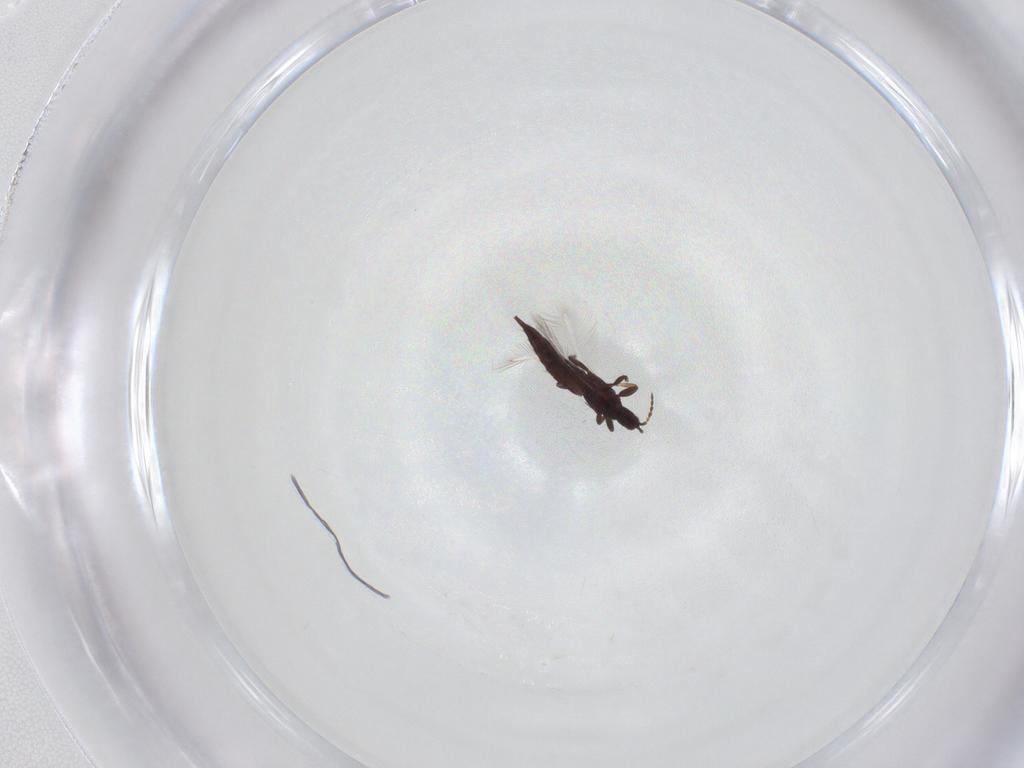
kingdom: Animalia
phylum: Arthropoda
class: Insecta
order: Thysanoptera
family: Phlaeothripidae
